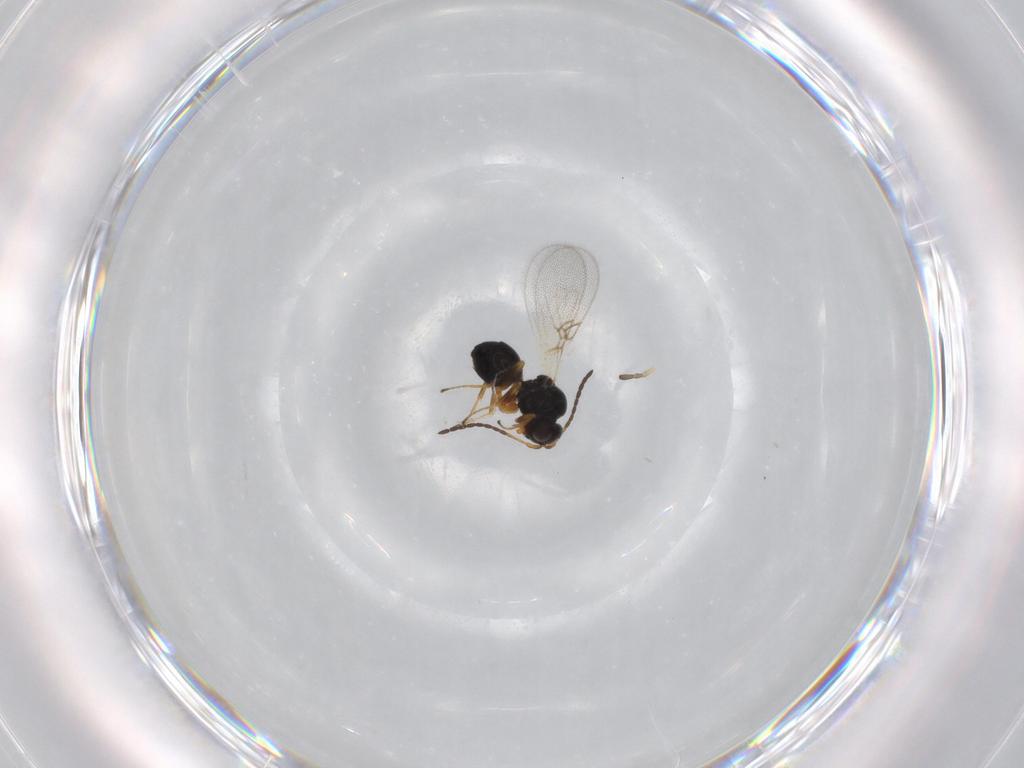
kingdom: Animalia
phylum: Arthropoda
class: Insecta
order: Hymenoptera
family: Figitidae
